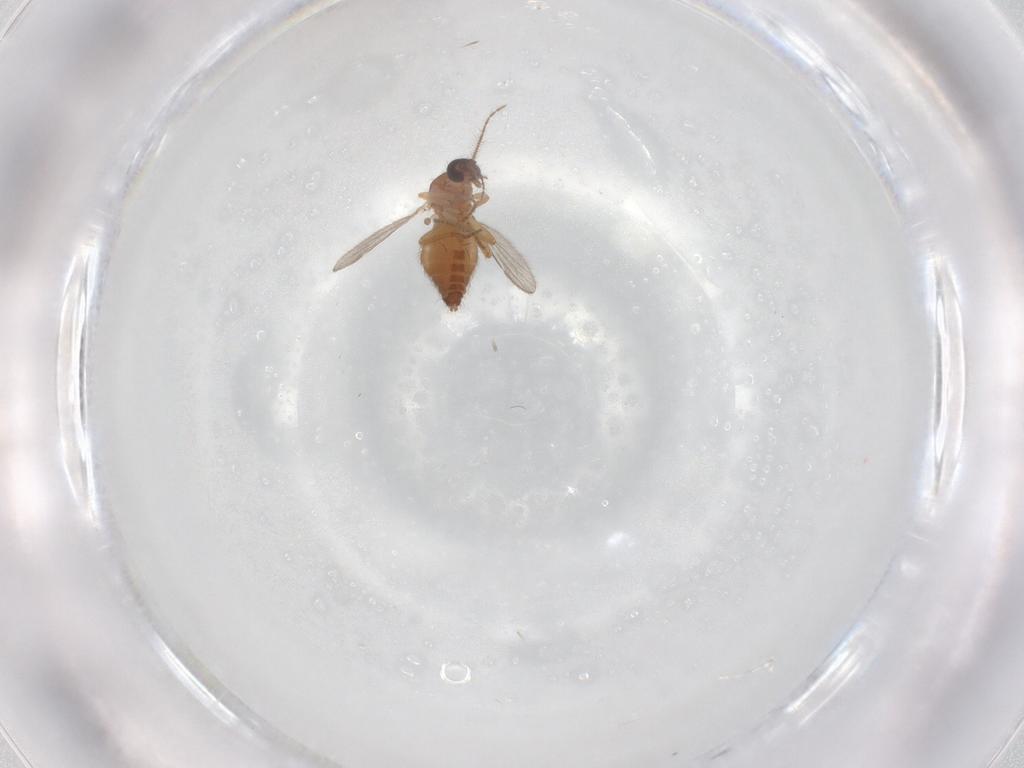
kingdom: Animalia
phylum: Arthropoda
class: Insecta
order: Diptera
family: Ceratopogonidae
